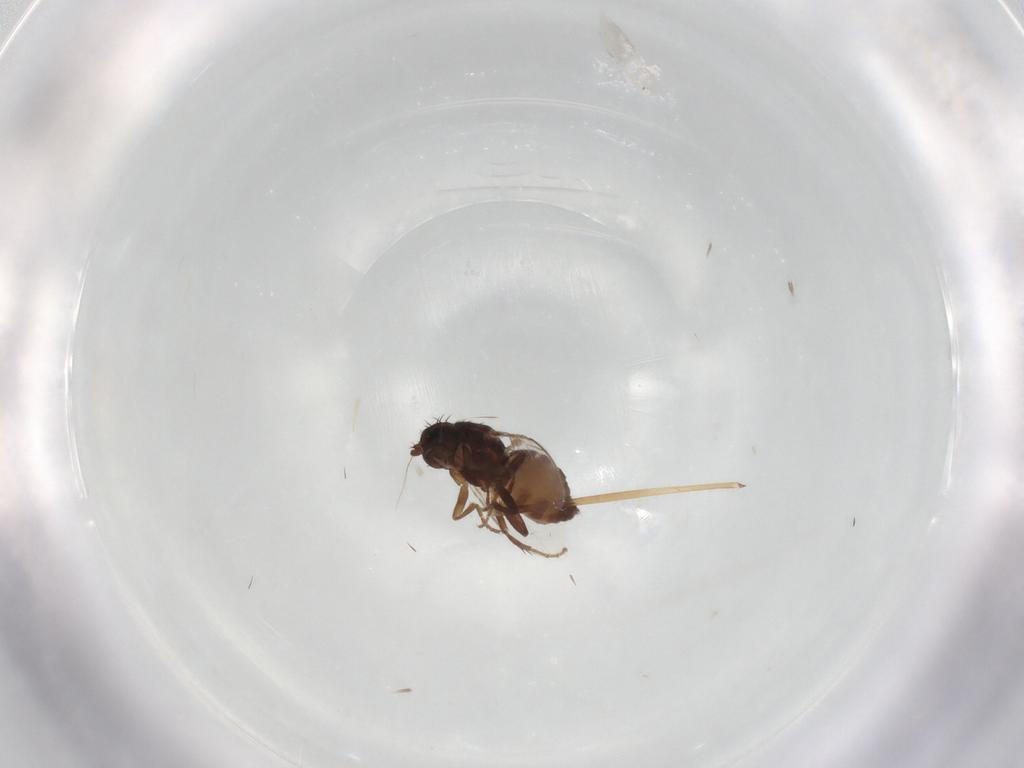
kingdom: Animalia
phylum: Arthropoda
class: Insecta
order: Diptera
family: Sphaeroceridae
